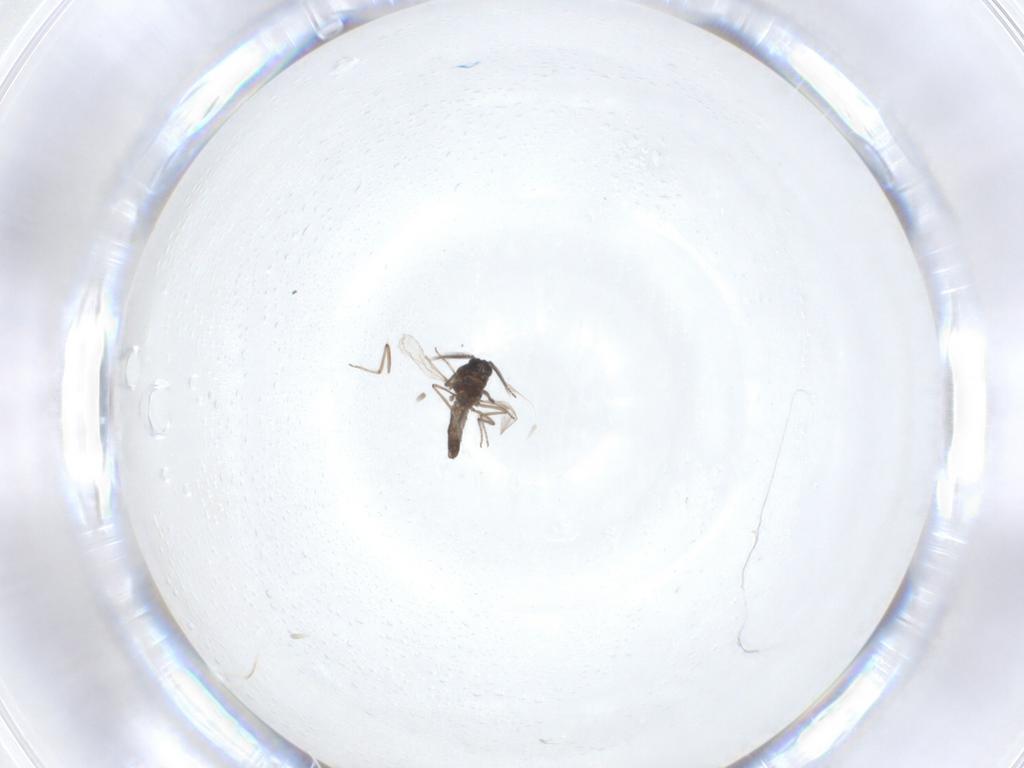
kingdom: Animalia
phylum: Arthropoda
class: Insecta
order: Diptera
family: Ceratopogonidae
